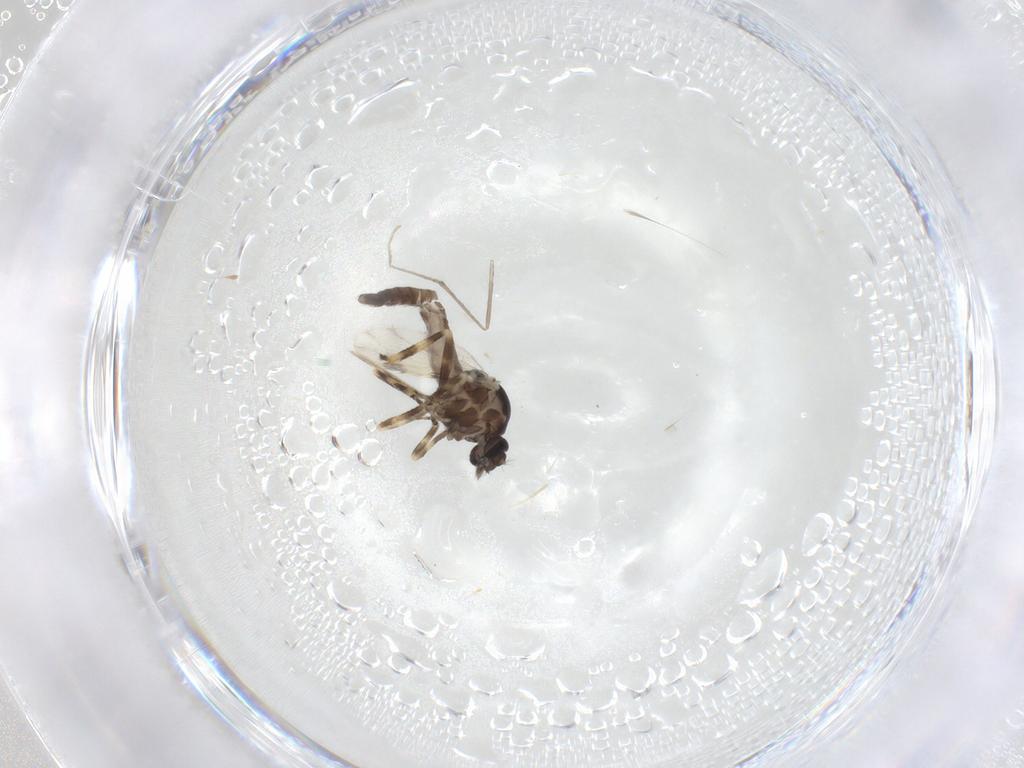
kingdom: Animalia
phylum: Arthropoda
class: Insecta
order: Diptera
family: Ceratopogonidae
